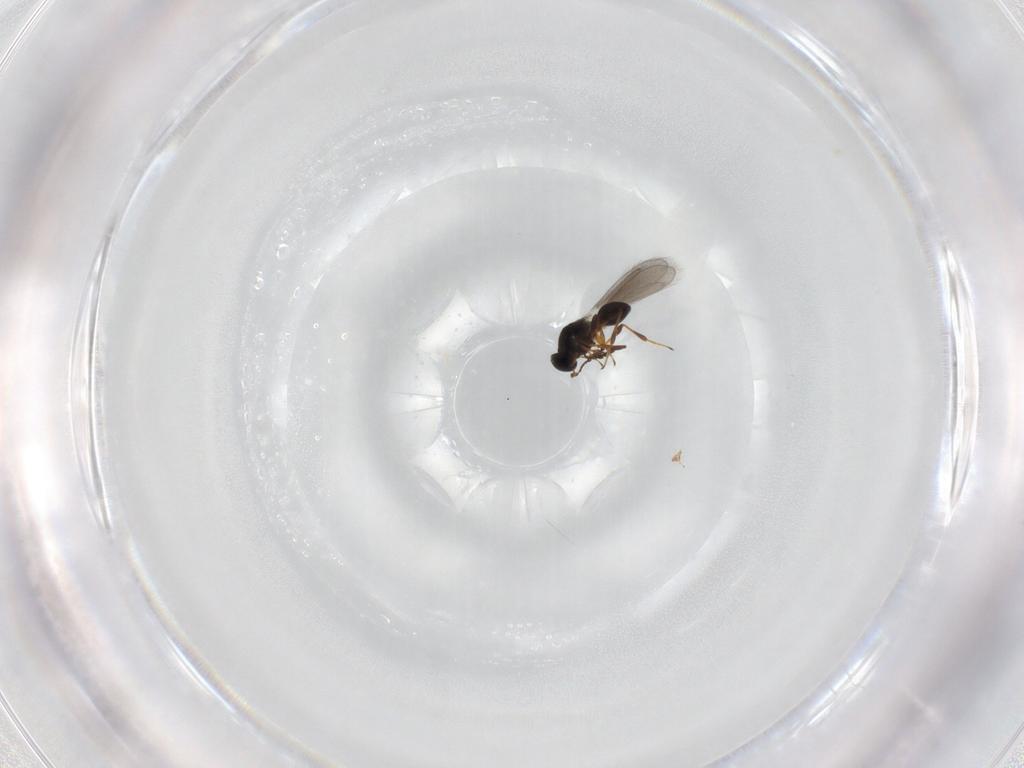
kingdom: Animalia
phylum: Arthropoda
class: Insecta
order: Hymenoptera
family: Platygastridae
